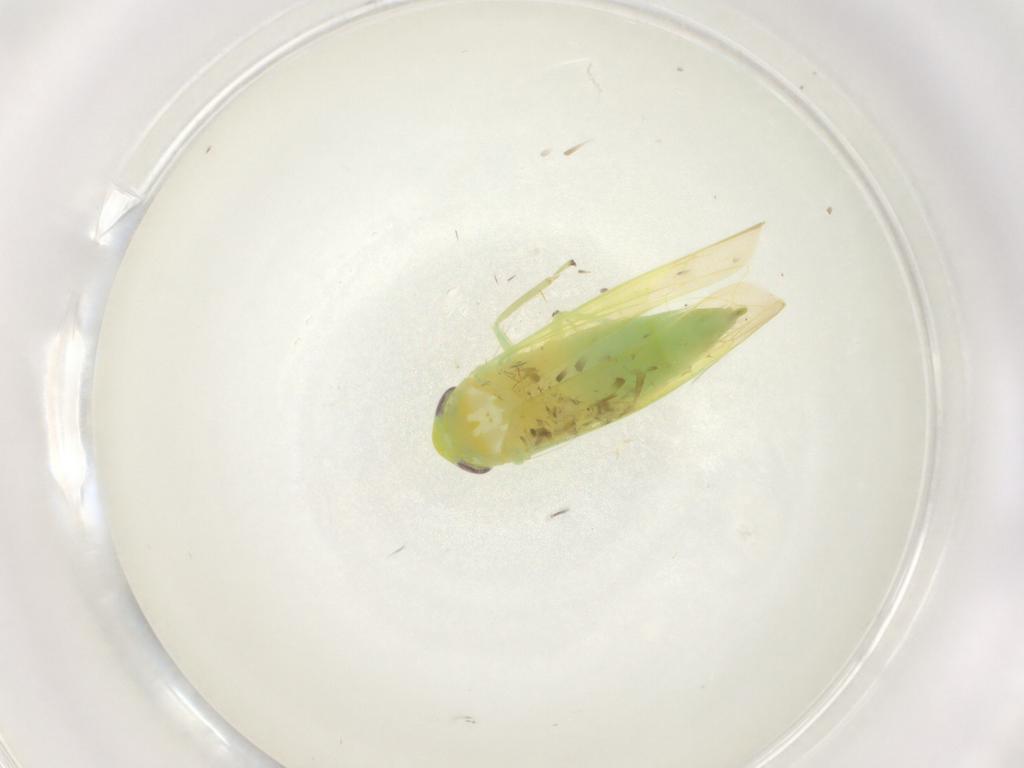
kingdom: Animalia
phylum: Arthropoda
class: Insecta
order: Hemiptera
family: Cicadellidae
